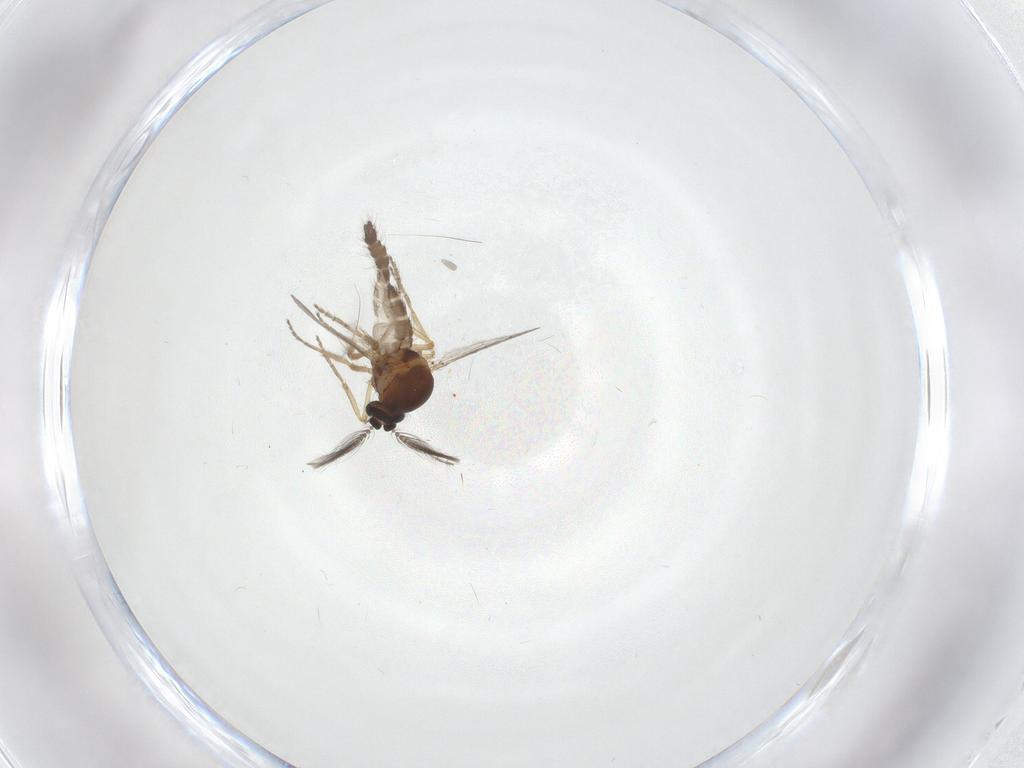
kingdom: Animalia
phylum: Arthropoda
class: Insecta
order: Diptera
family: Ceratopogonidae
